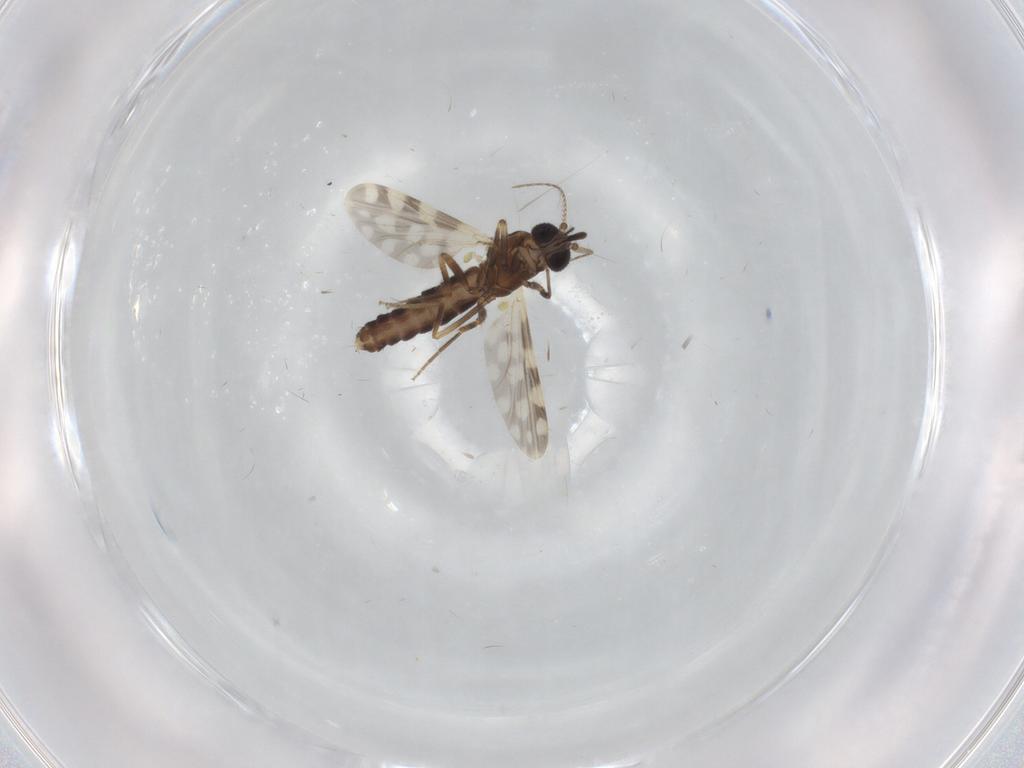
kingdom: Animalia
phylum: Arthropoda
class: Insecta
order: Diptera
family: Ceratopogonidae
